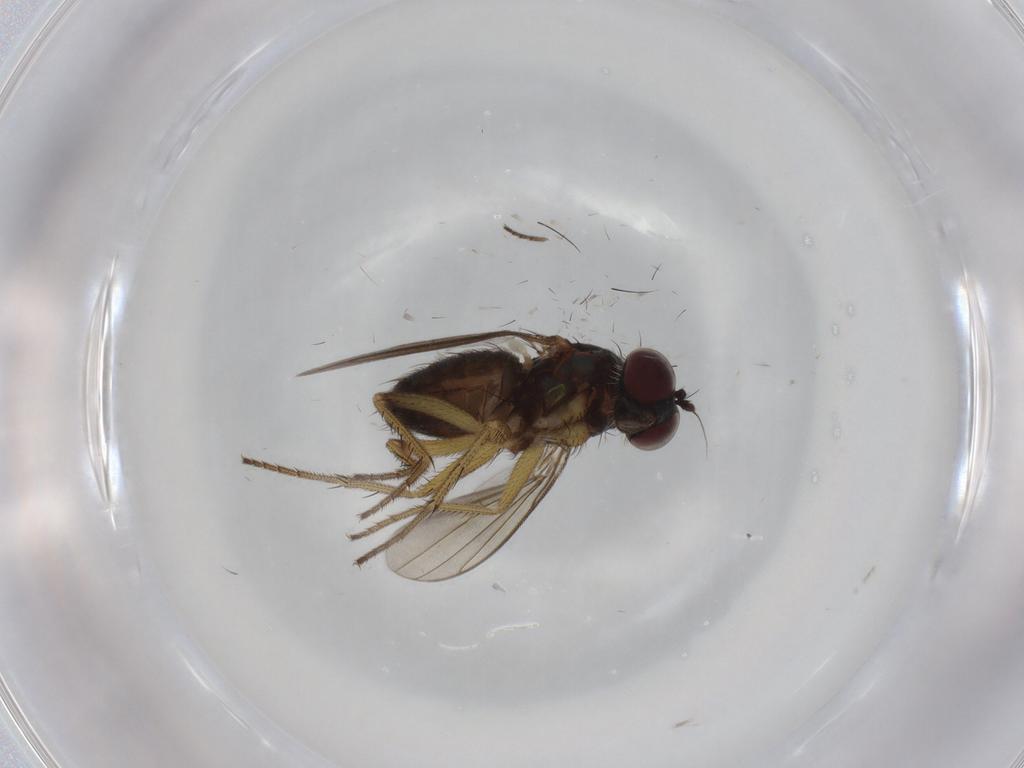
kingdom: Animalia
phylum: Arthropoda
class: Insecta
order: Diptera
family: Dolichopodidae
